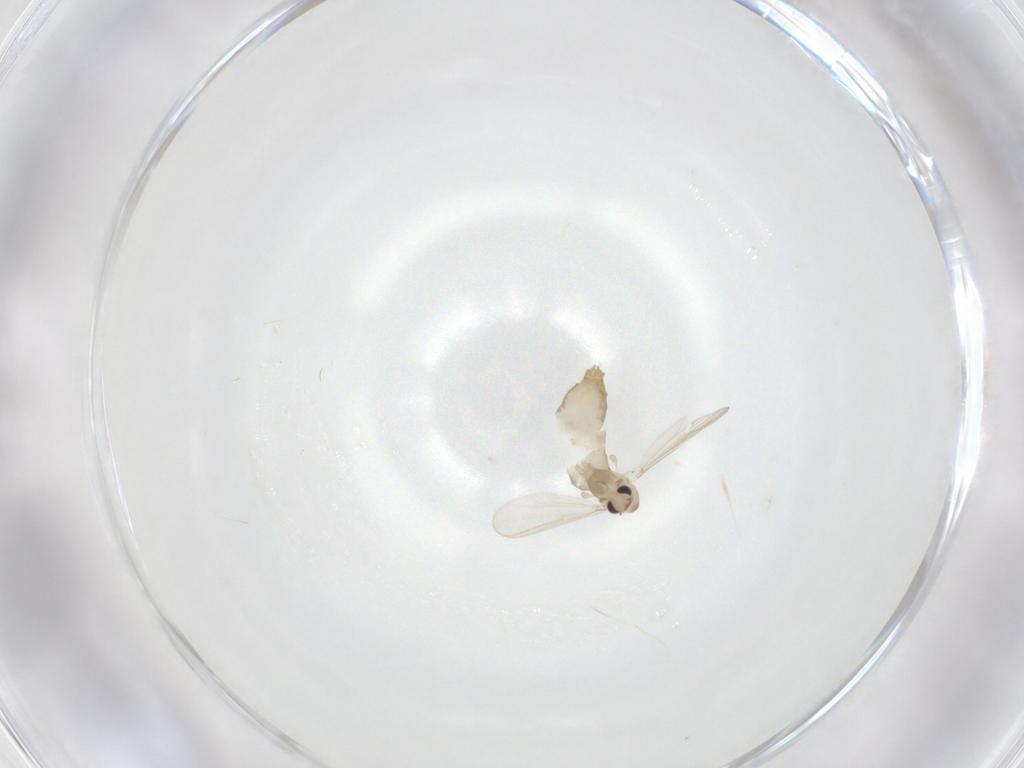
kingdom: Animalia
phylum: Arthropoda
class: Insecta
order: Diptera
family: Chironomidae
